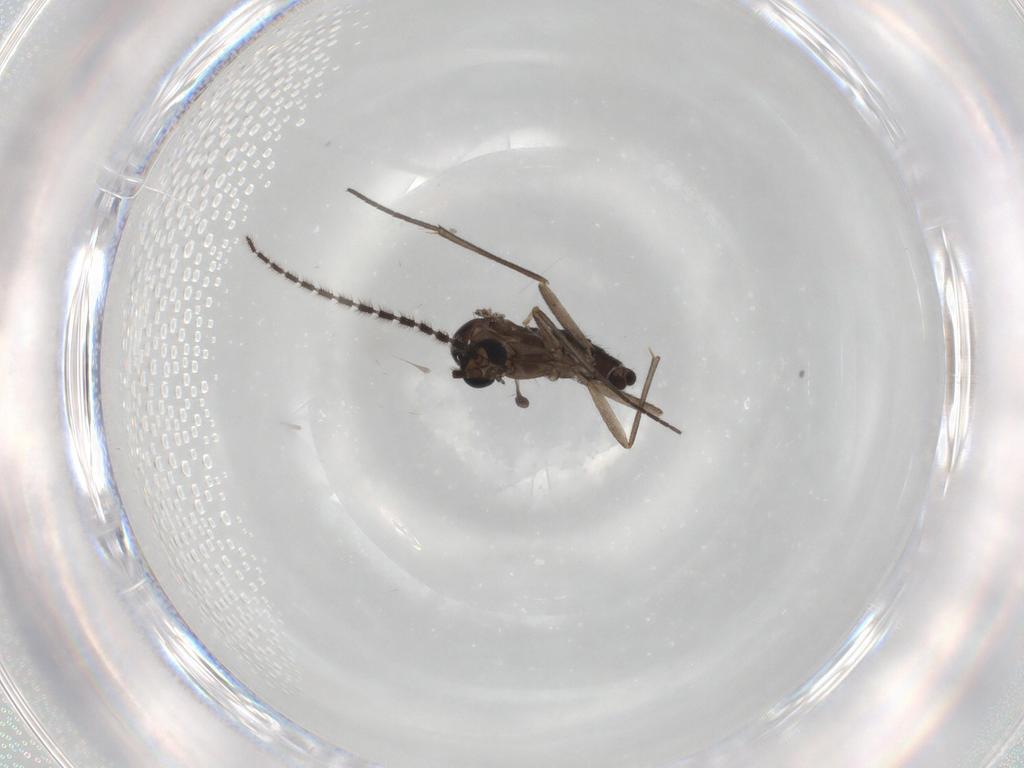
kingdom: Animalia
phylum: Arthropoda
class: Insecta
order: Diptera
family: Sciaridae
